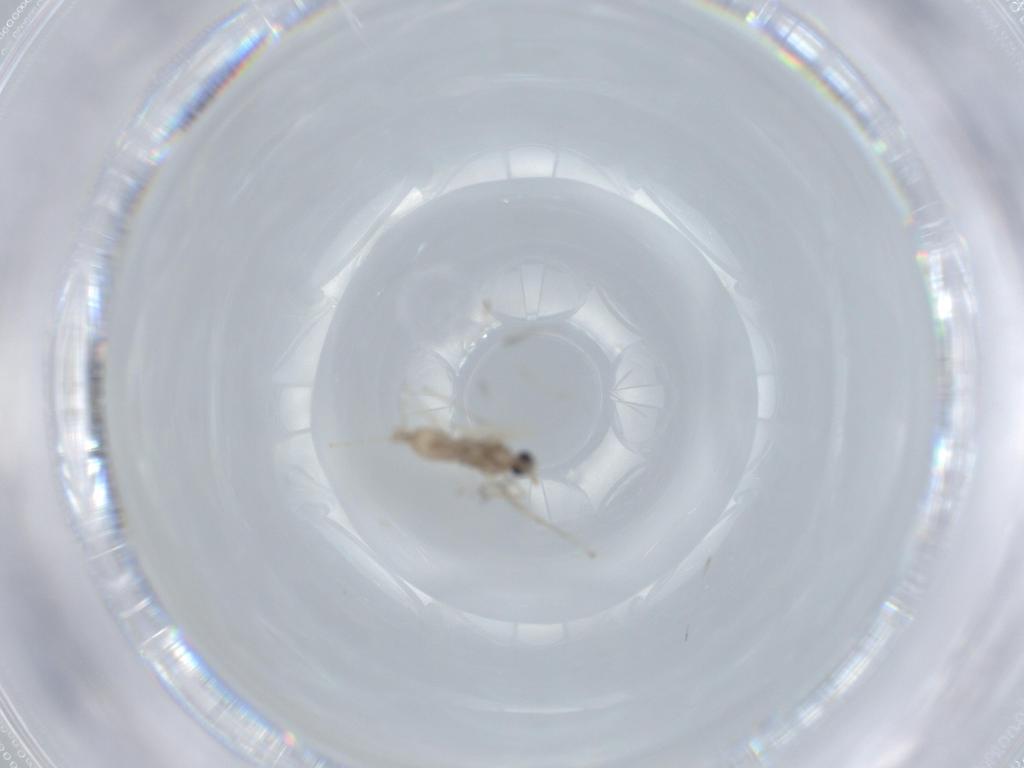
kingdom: Animalia
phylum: Arthropoda
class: Insecta
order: Diptera
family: Cecidomyiidae
